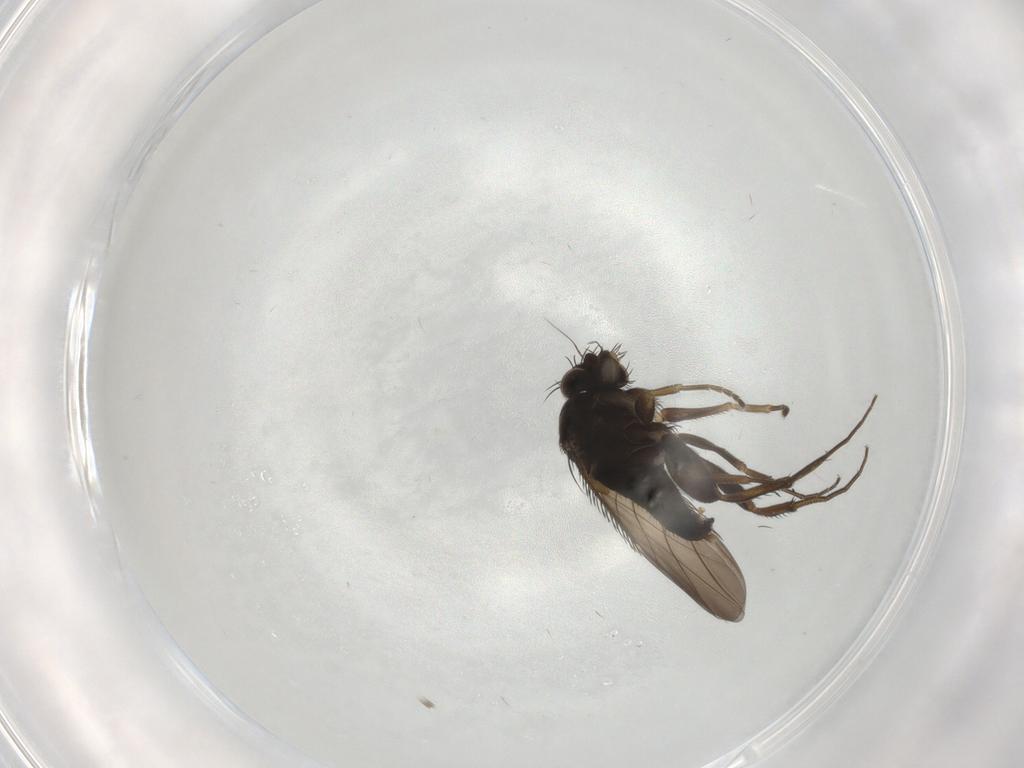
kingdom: Animalia
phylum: Arthropoda
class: Insecta
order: Diptera
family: Phoridae
